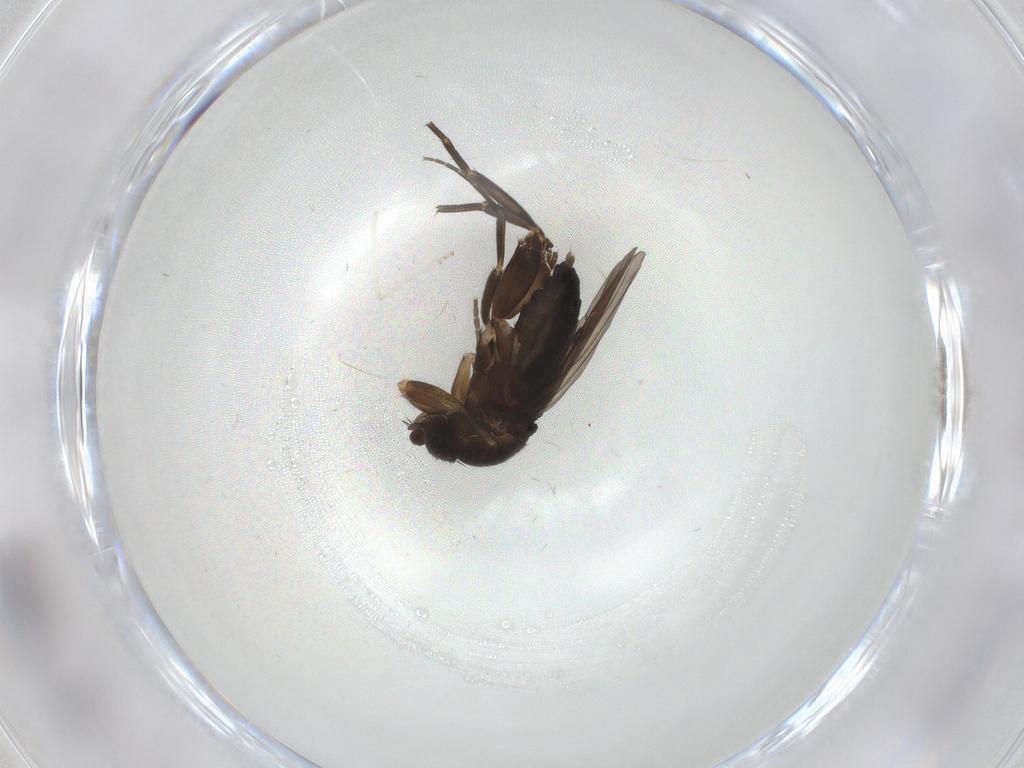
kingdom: Animalia
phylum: Arthropoda
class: Insecta
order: Diptera
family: Phoridae
